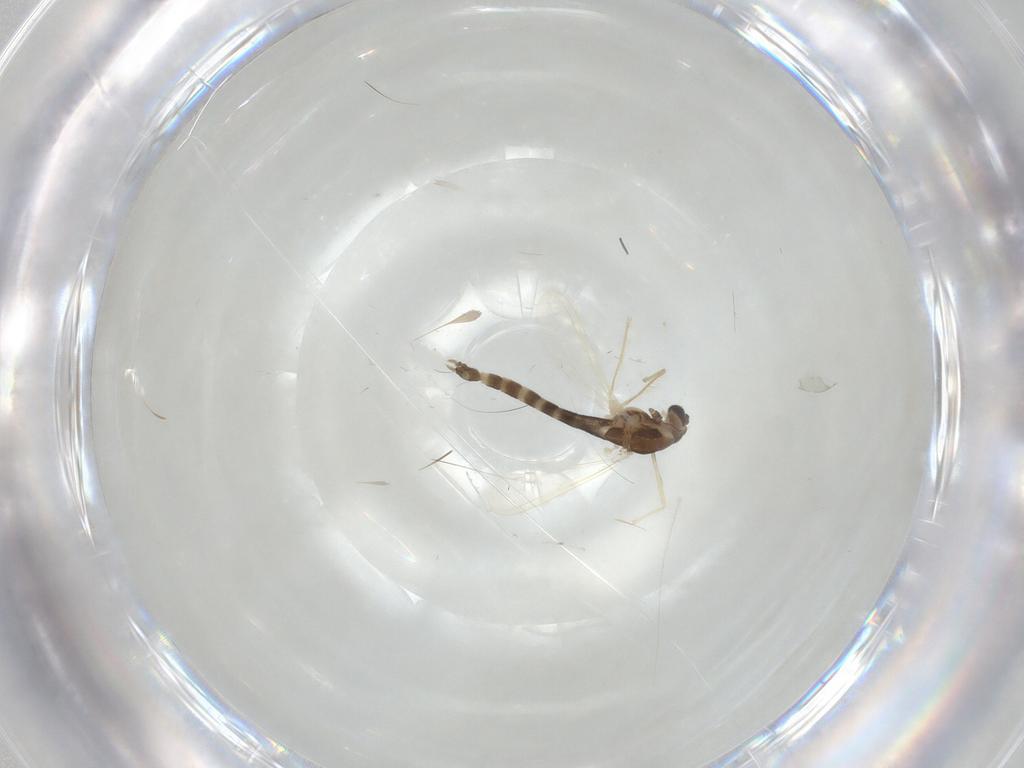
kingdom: Animalia
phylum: Arthropoda
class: Insecta
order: Diptera
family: Chironomidae
